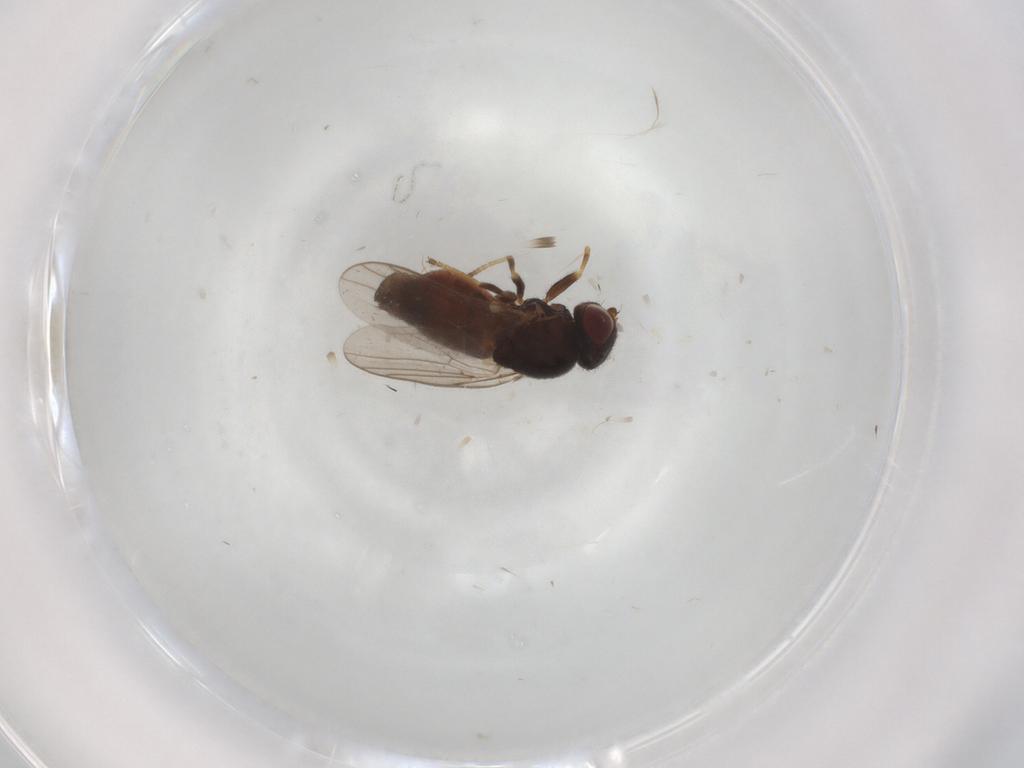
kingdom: Animalia
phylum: Arthropoda
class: Insecta
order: Diptera
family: Chloropidae
